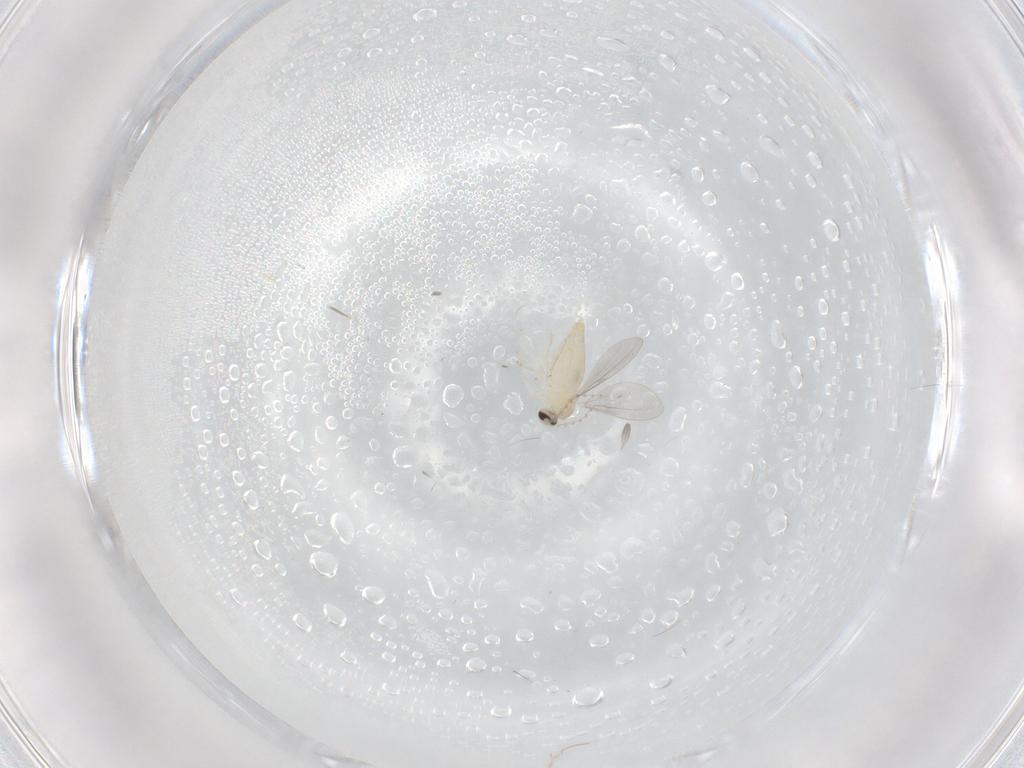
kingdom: Animalia
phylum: Arthropoda
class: Insecta
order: Diptera
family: Cecidomyiidae
